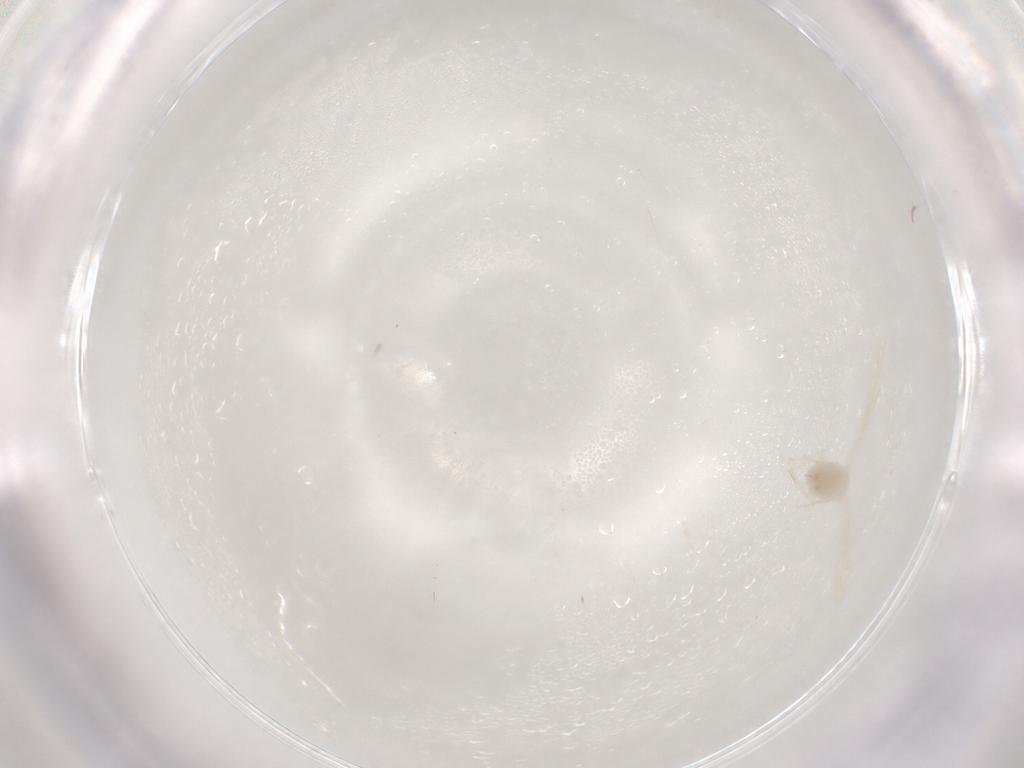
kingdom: Animalia
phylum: Arthropoda
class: Insecta
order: Hemiptera
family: Aleyrodidae
